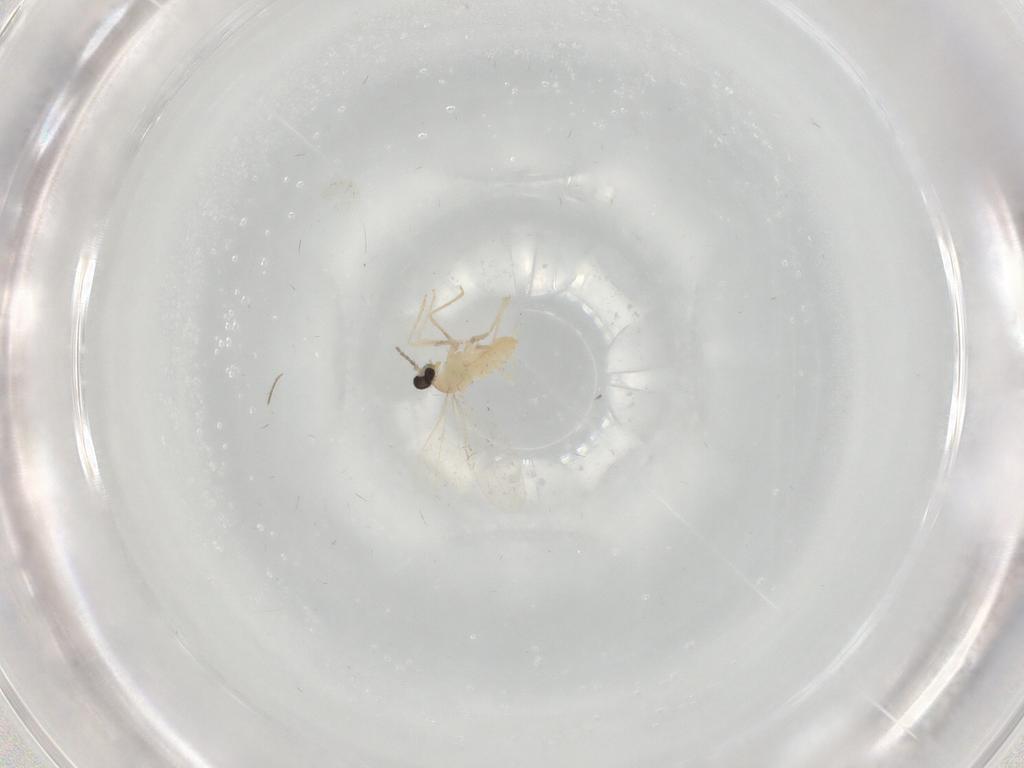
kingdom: Animalia
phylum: Arthropoda
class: Insecta
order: Diptera
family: Cecidomyiidae
